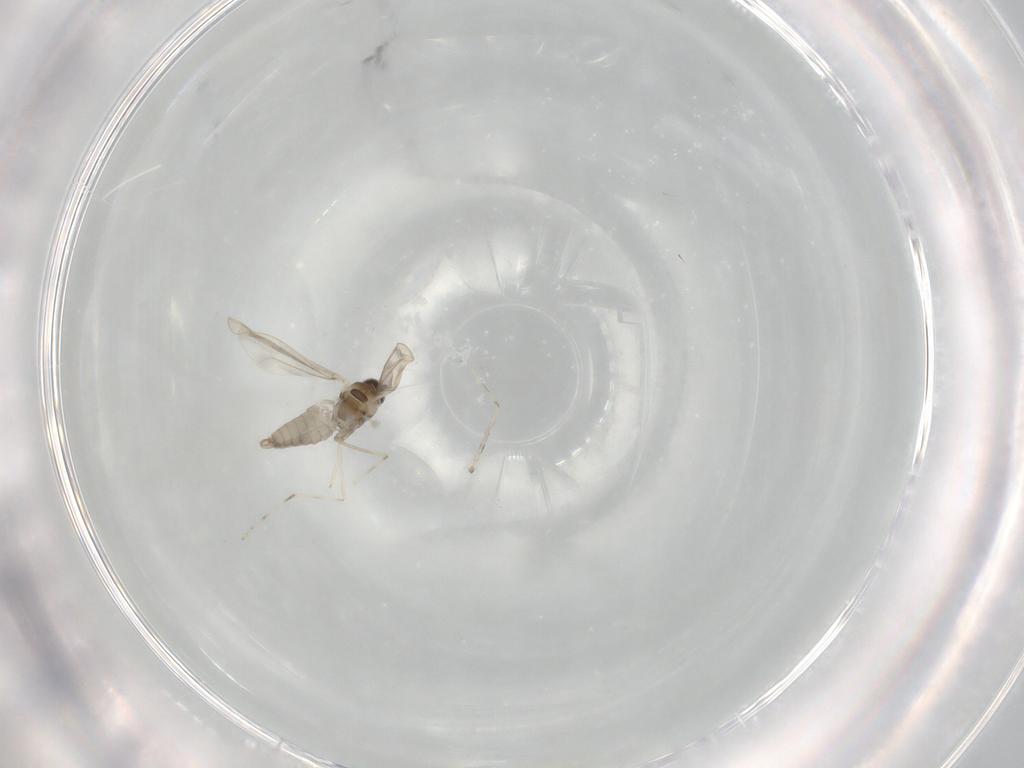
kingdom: Animalia
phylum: Arthropoda
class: Insecta
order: Diptera
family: Cecidomyiidae
